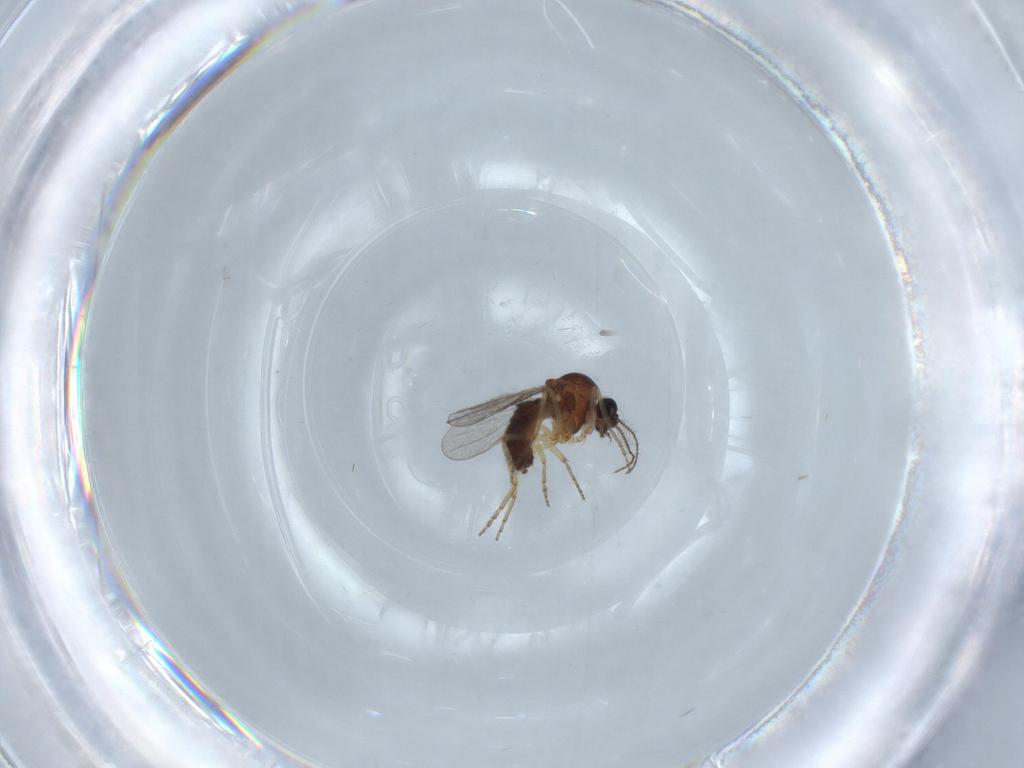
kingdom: Animalia
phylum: Arthropoda
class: Insecta
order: Diptera
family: Ceratopogonidae
